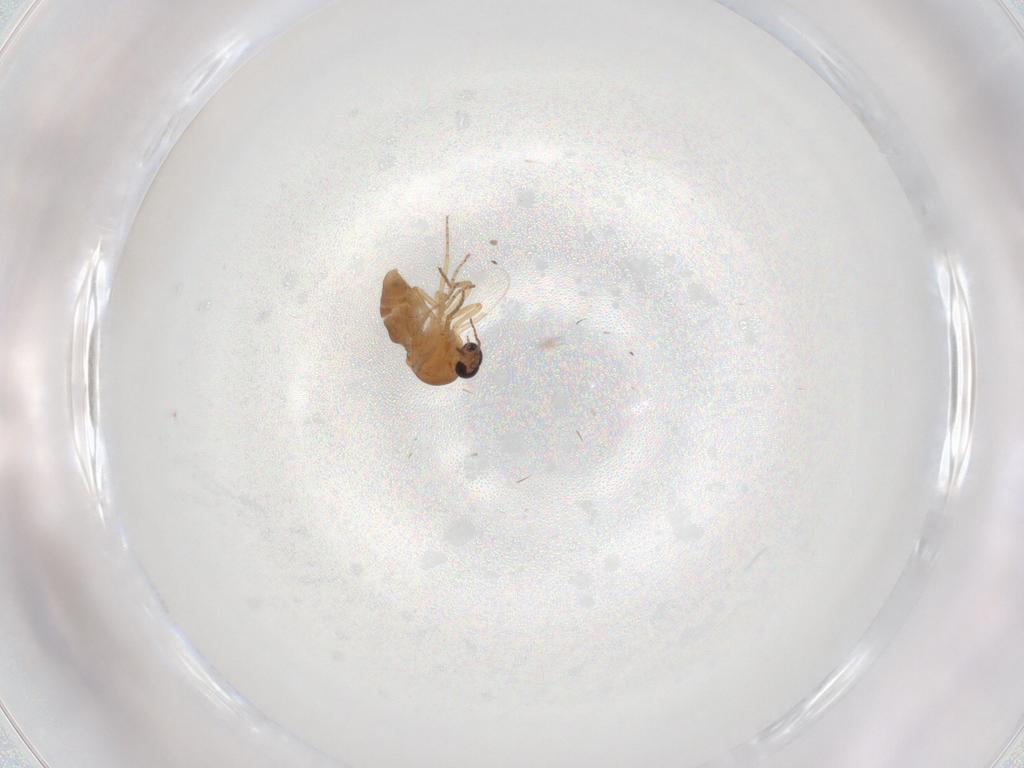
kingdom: Animalia
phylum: Arthropoda
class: Insecta
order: Diptera
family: Ceratopogonidae
